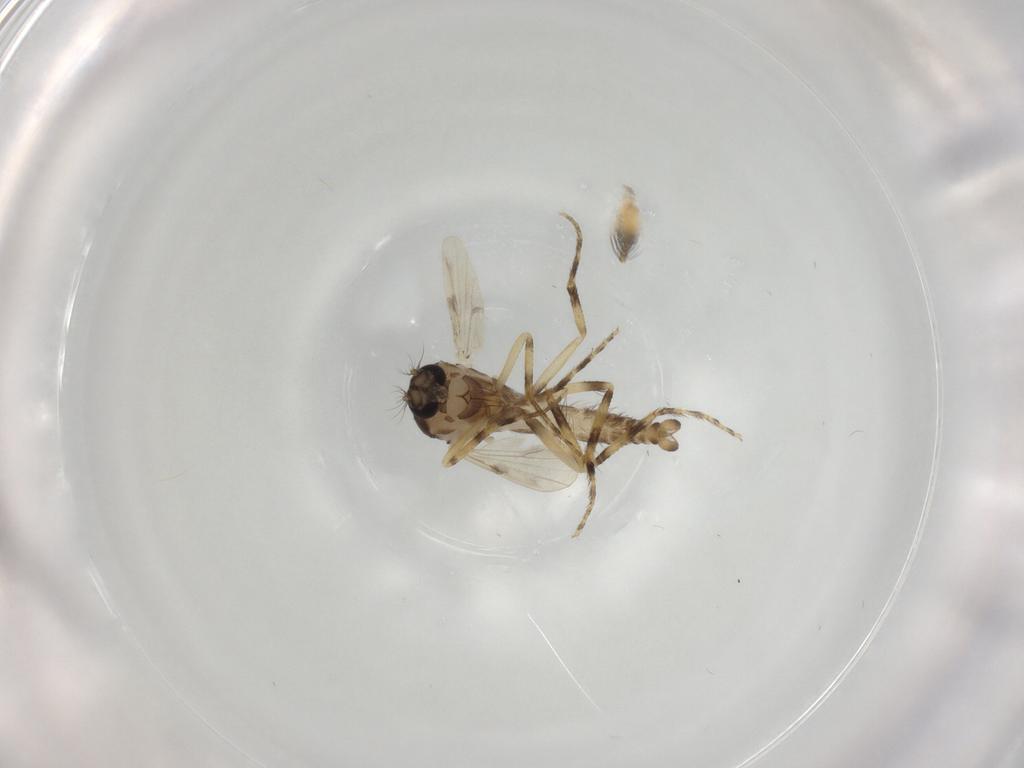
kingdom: Animalia
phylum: Arthropoda
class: Insecta
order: Diptera
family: Ceratopogonidae
